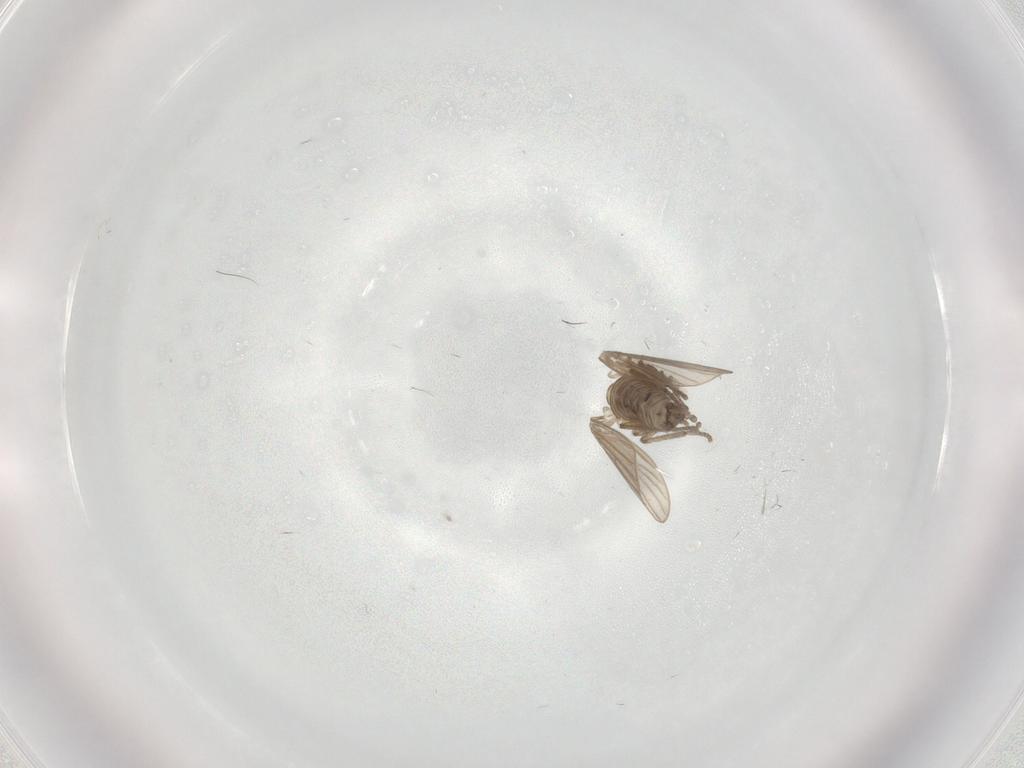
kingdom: Animalia
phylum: Arthropoda
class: Insecta
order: Diptera
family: Psychodidae
